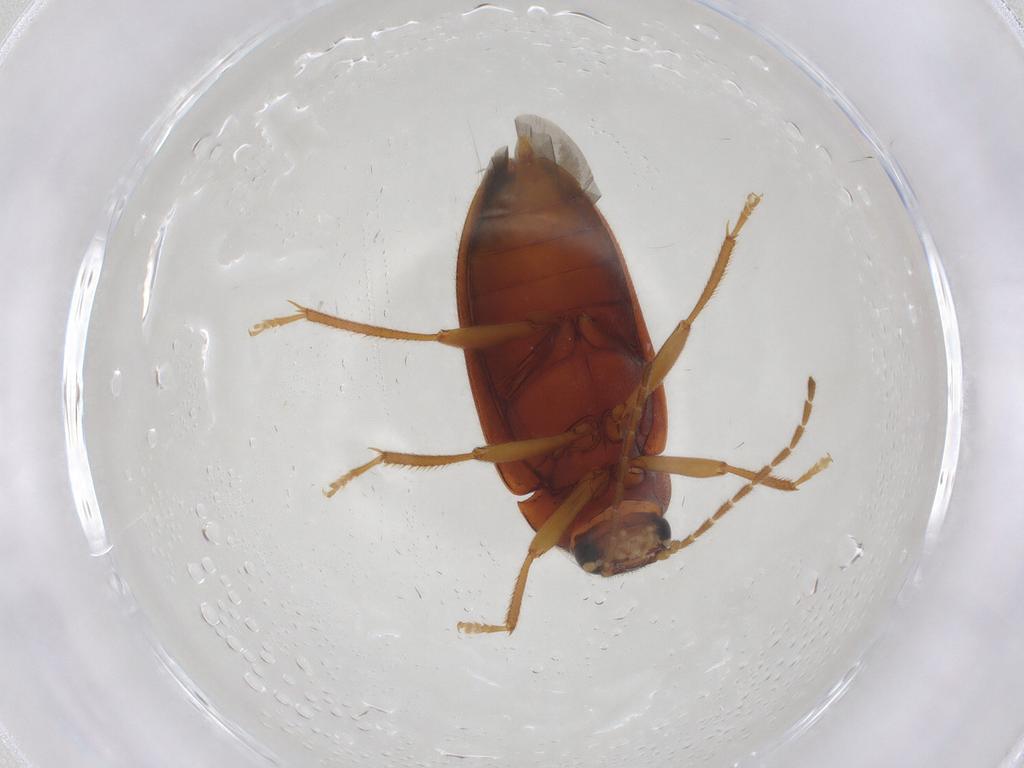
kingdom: Animalia
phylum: Arthropoda
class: Insecta
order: Coleoptera
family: Ptilodactylidae
